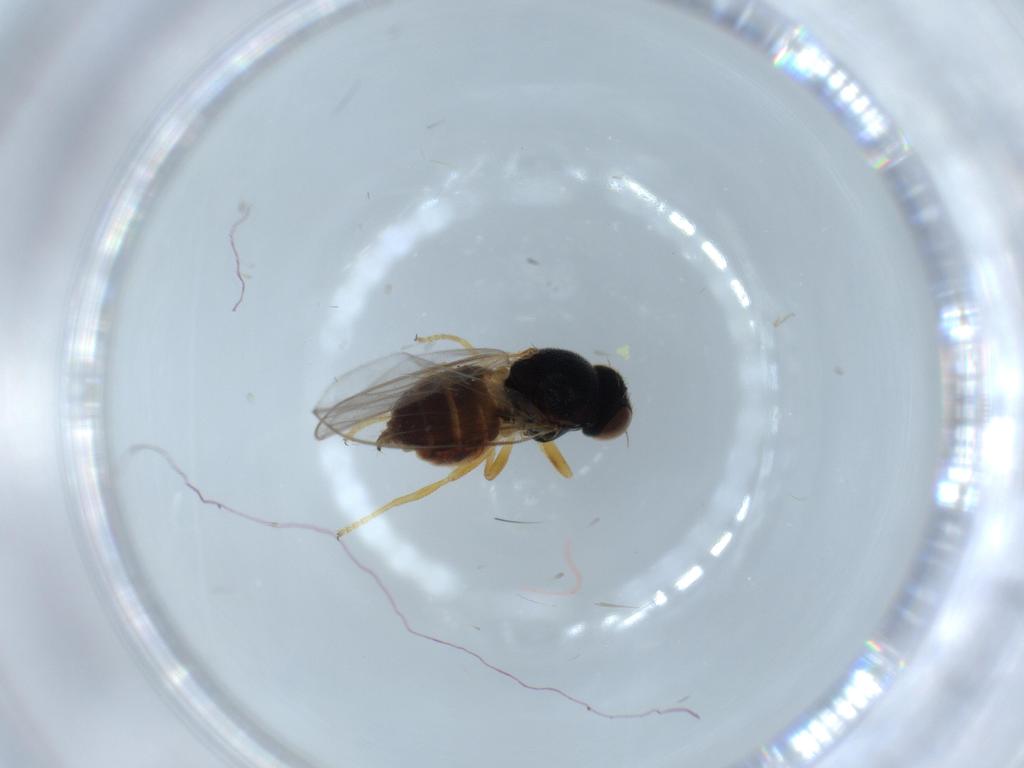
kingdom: Animalia
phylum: Arthropoda
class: Insecta
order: Diptera
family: Chloropidae
